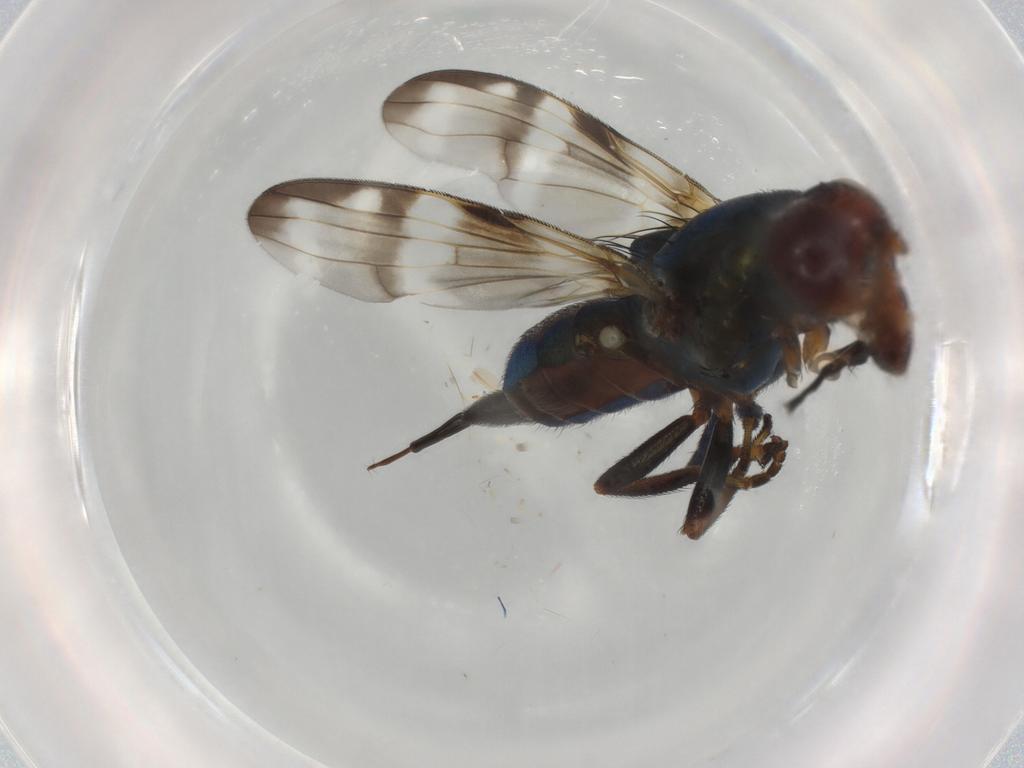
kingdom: Animalia
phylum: Arthropoda
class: Insecta
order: Diptera
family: Ulidiidae
